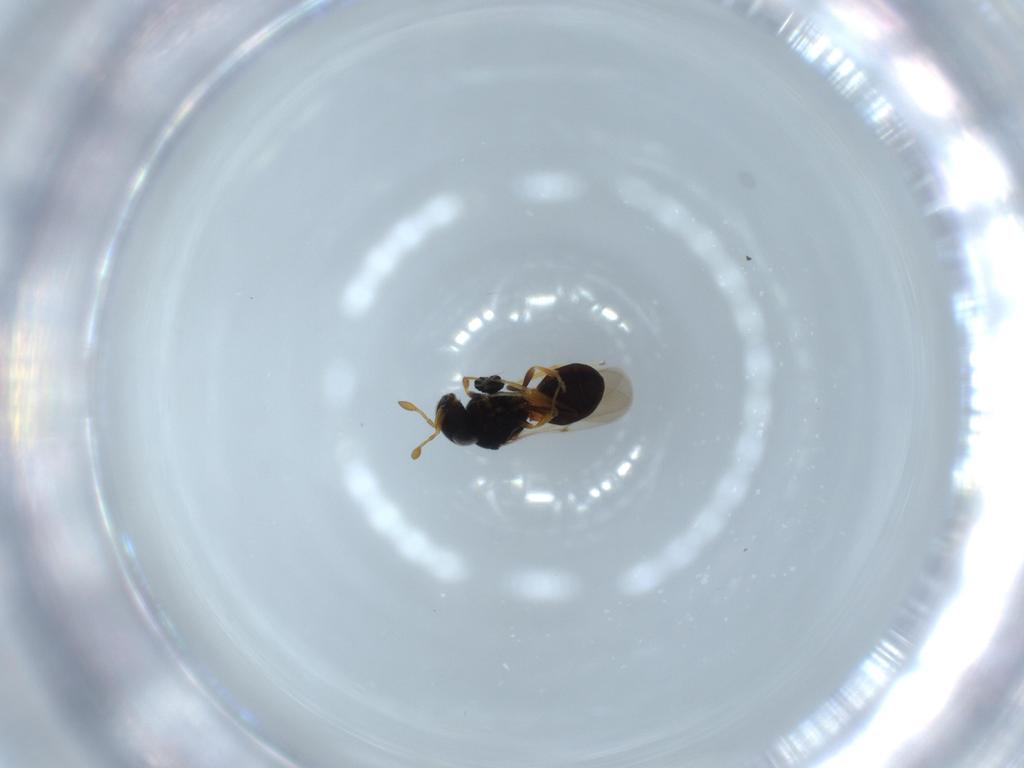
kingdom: Animalia
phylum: Arthropoda
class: Insecta
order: Hymenoptera
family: Scelionidae
